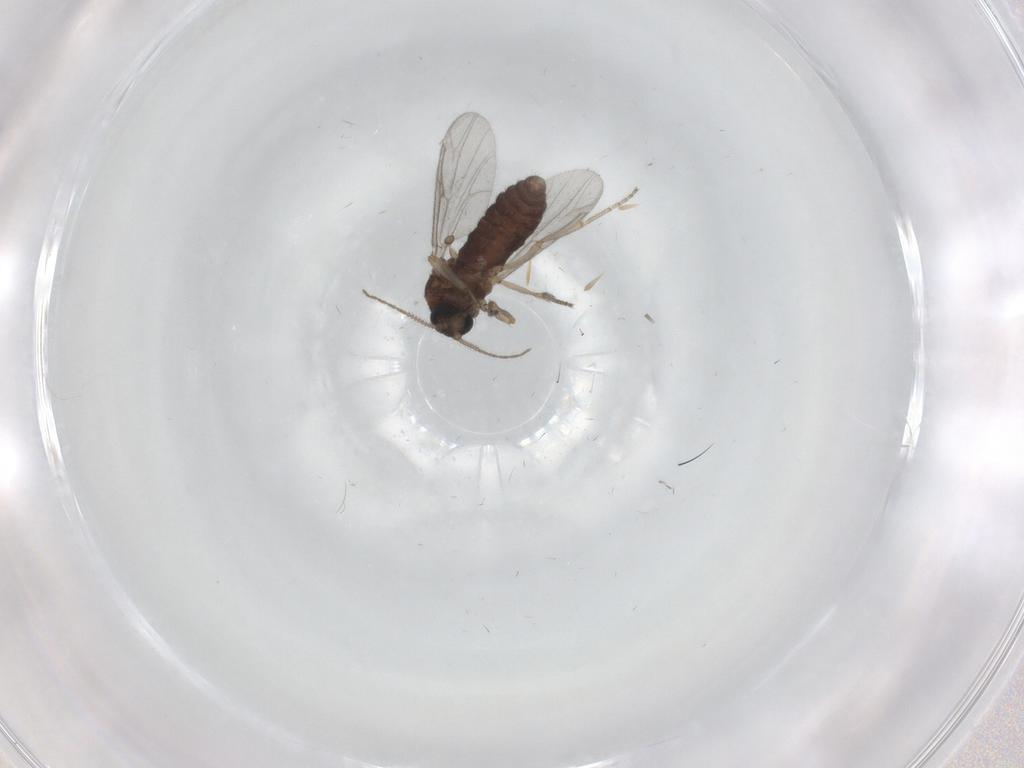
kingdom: Animalia
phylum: Arthropoda
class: Insecta
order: Diptera
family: Ceratopogonidae
